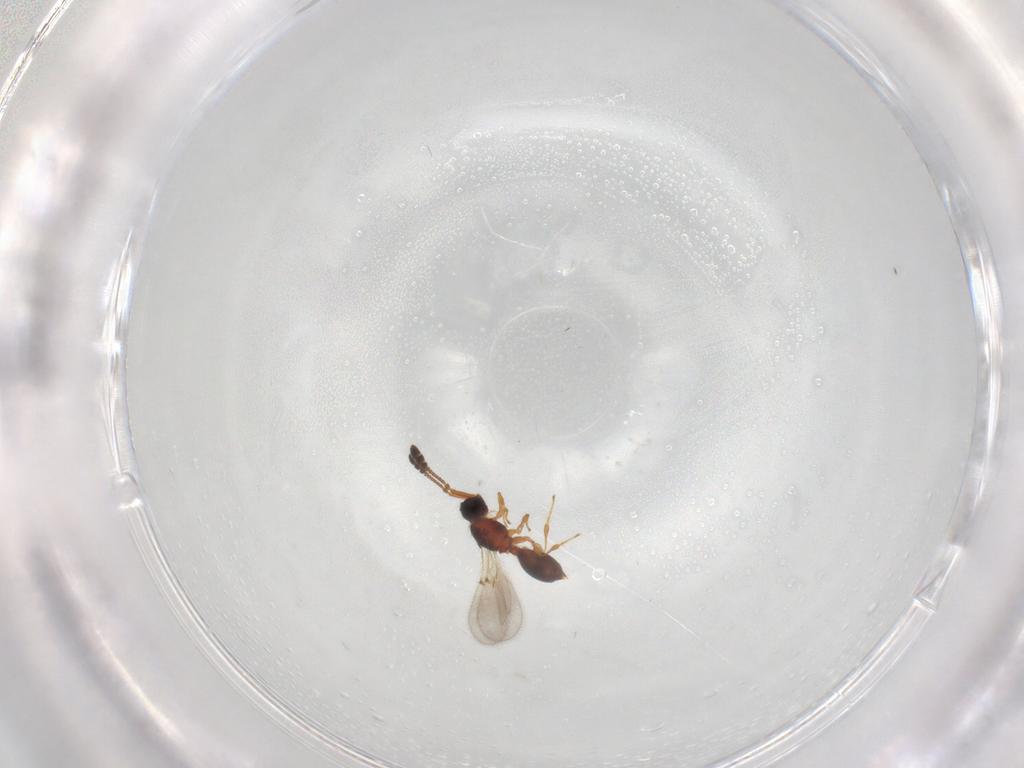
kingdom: Animalia
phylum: Arthropoda
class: Insecta
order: Hymenoptera
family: Diapriidae
